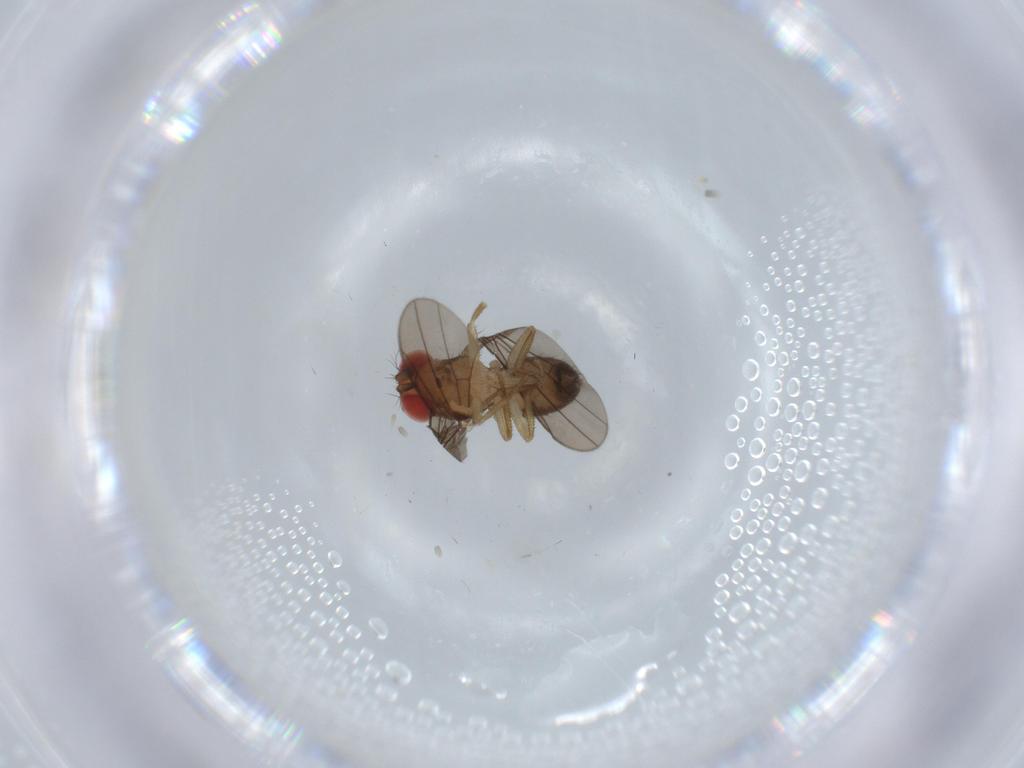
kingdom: Animalia
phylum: Arthropoda
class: Insecta
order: Diptera
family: Drosophilidae
